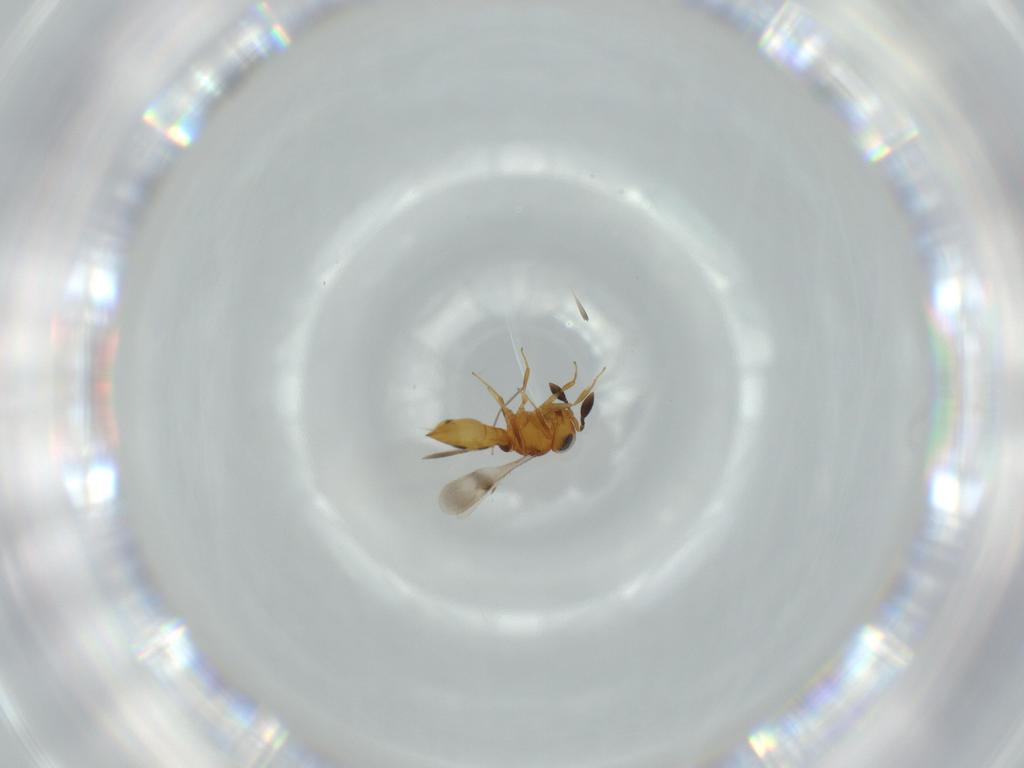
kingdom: Animalia
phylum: Arthropoda
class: Insecta
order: Hymenoptera
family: Scelionidae
